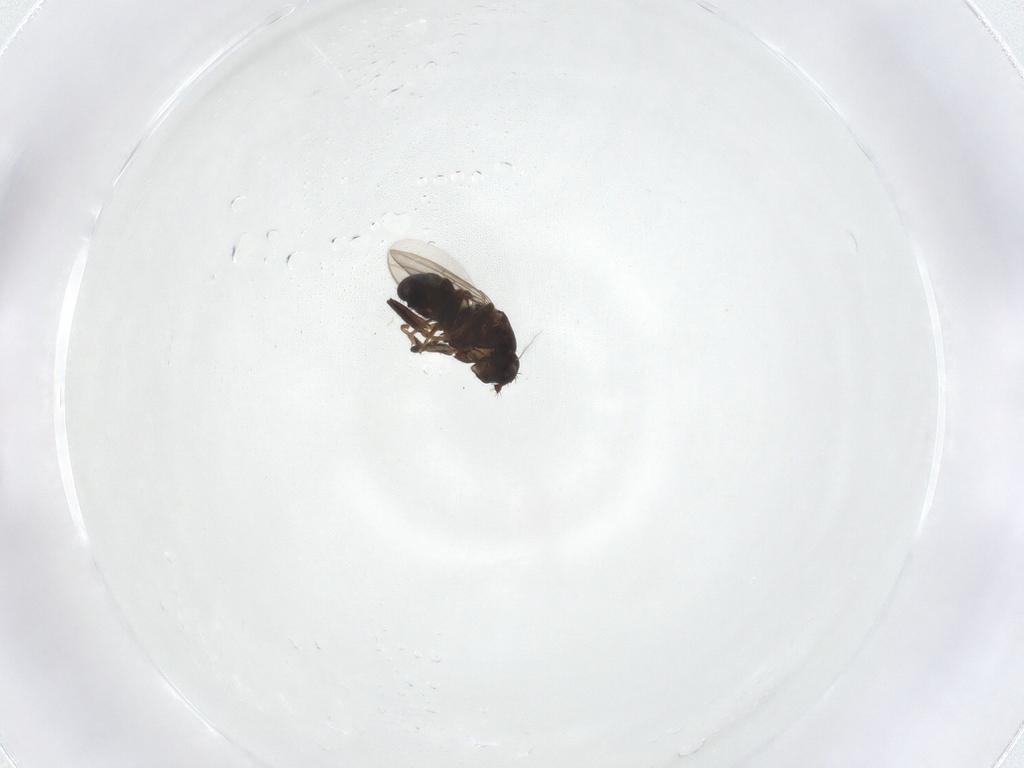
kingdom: Animalia
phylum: Arthropoda
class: Insecta
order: Diptera
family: Sphaeroceridae
